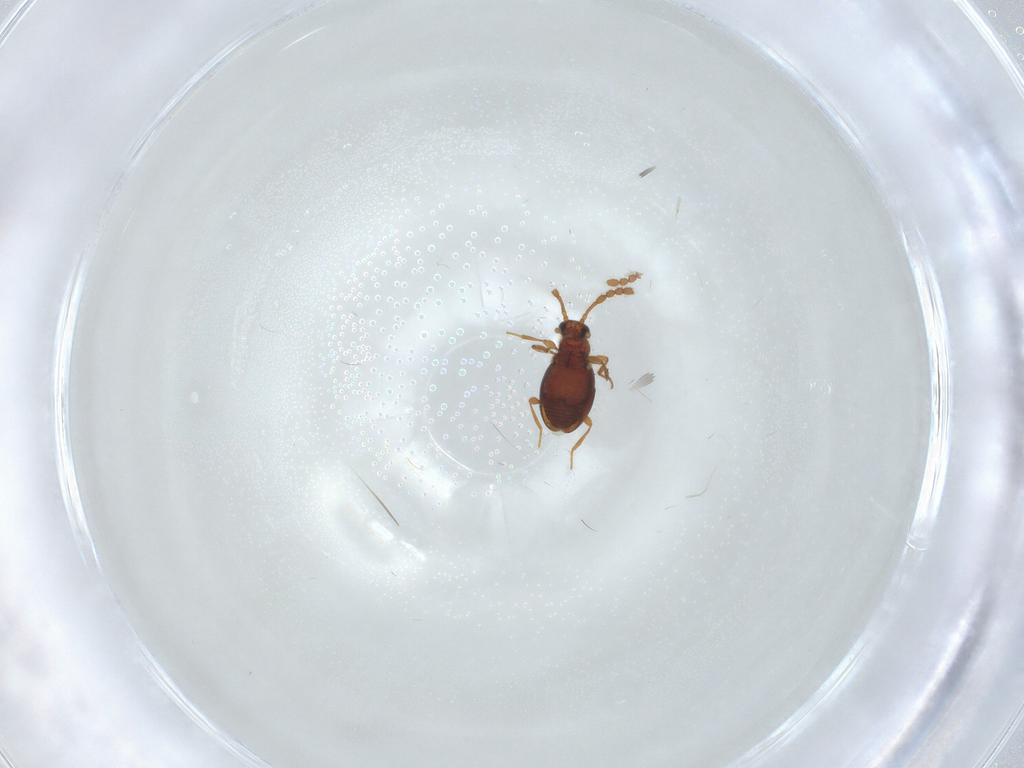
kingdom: Animalia
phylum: Arthropoda
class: Insecta
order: Coleoptera
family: Staphylinidae
